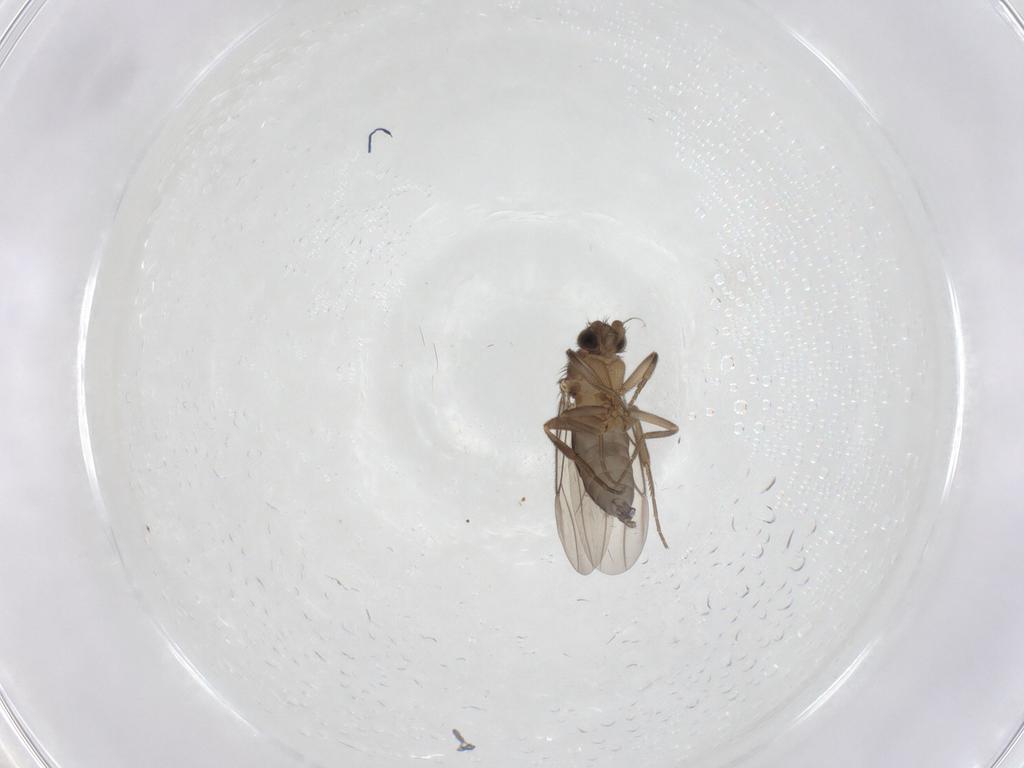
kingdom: Animalia
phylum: Arthropoda
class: Insecta
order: Diptera
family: Phoridae
